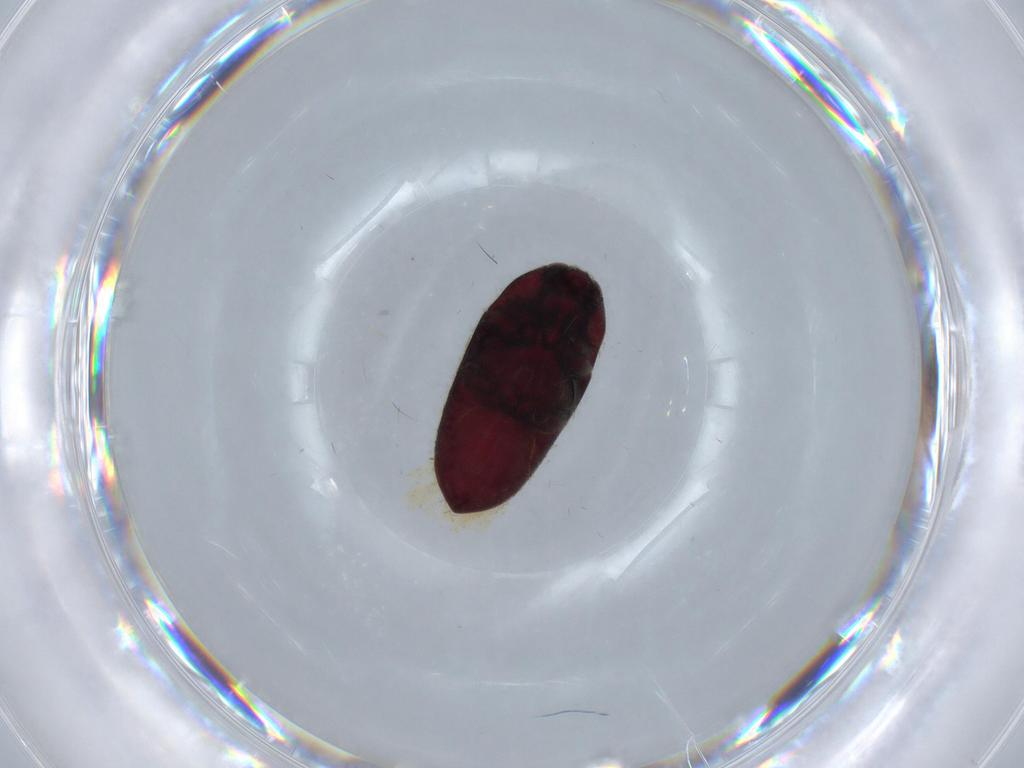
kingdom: Animalia
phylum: Arthropoda
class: Insecta
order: Coleoptera
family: Throscidae
